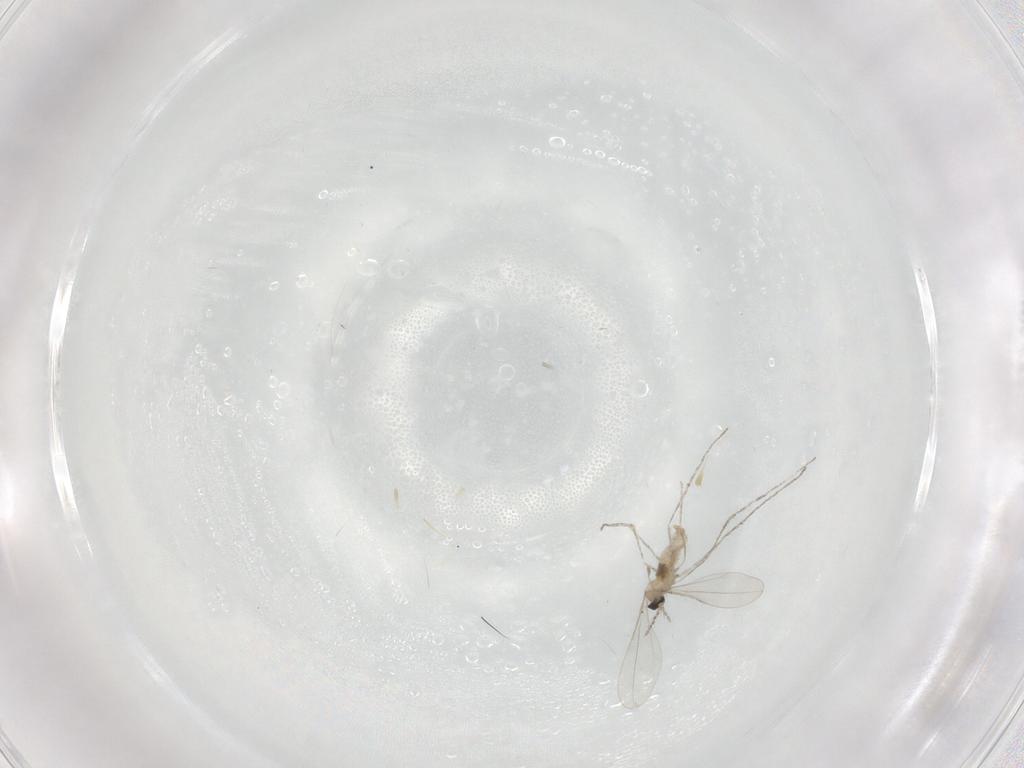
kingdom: Animalia
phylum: Arthropoda
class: Insecta
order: Diptera
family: Cecidomyiidae
